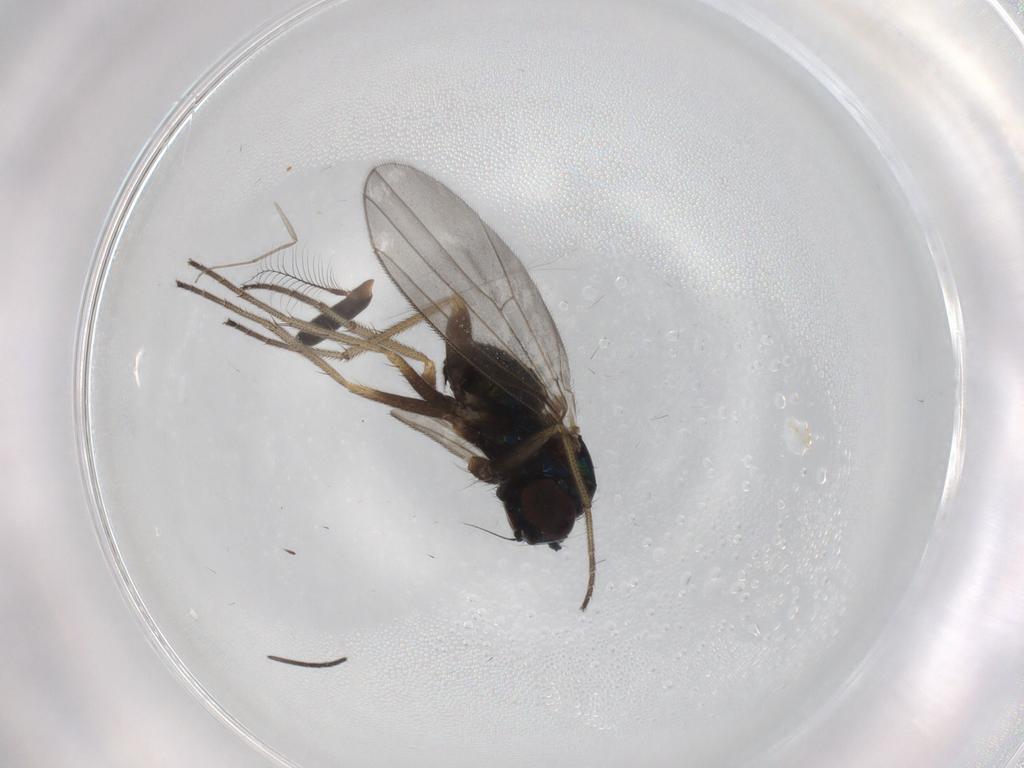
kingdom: Animalia
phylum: Arthropoda
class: Insecta
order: Diptera
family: Dolichopodidae
